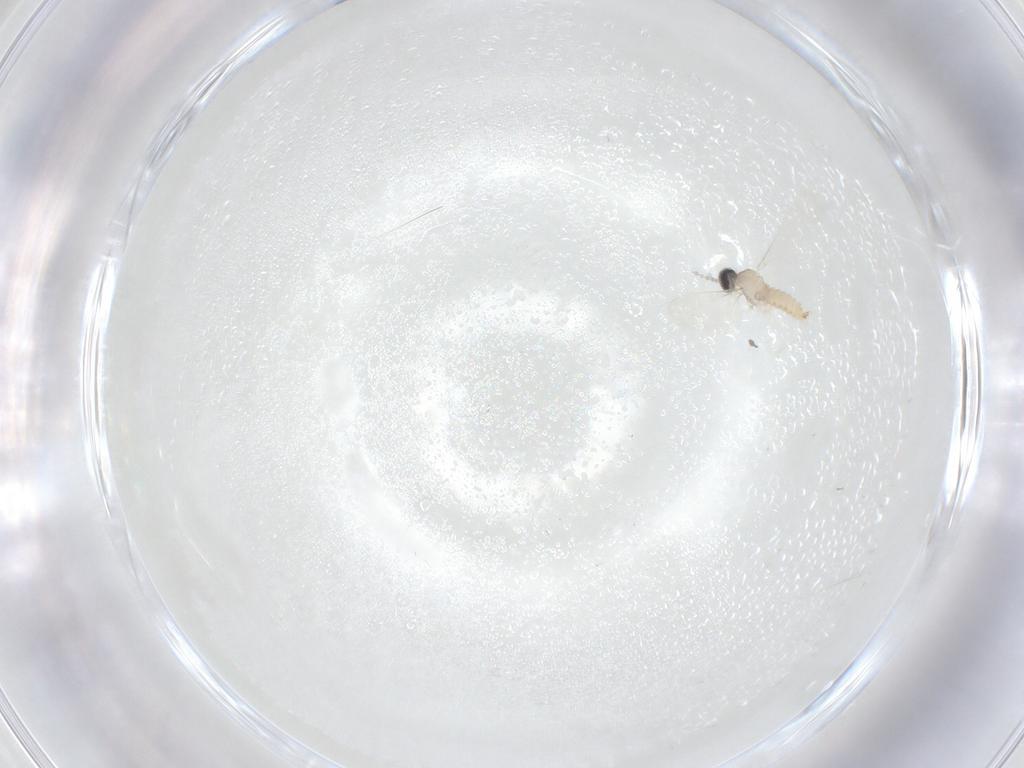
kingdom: Animalia
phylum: Arthropoda
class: Insecta
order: Diptera
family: Cecidomyiidae
